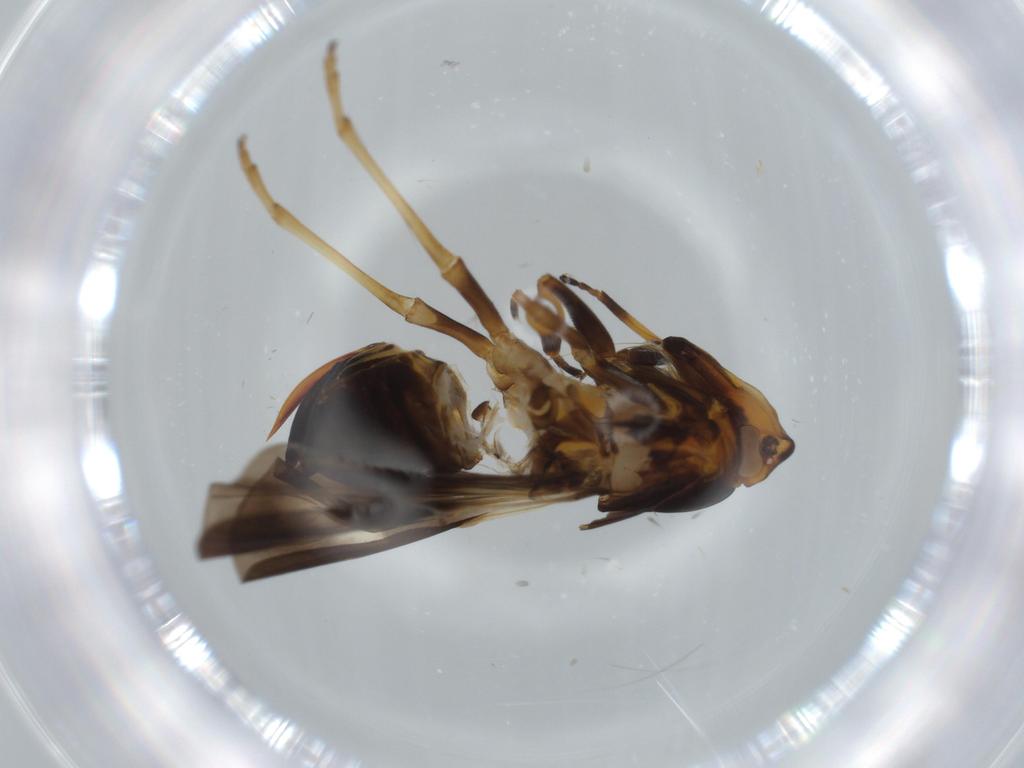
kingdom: Animalia
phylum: Arthropoda
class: Insecta
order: Hemiptera
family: Cixiidae
